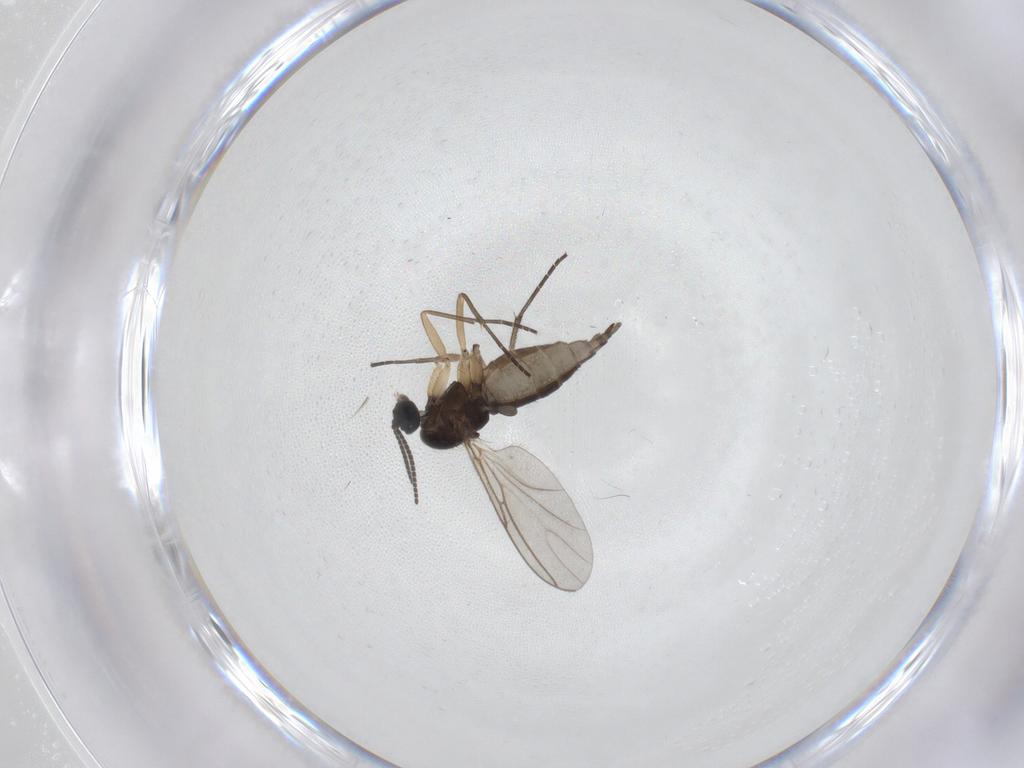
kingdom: Animalia
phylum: Arthropoda
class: Insecta
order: Diptera
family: Sciaridae
